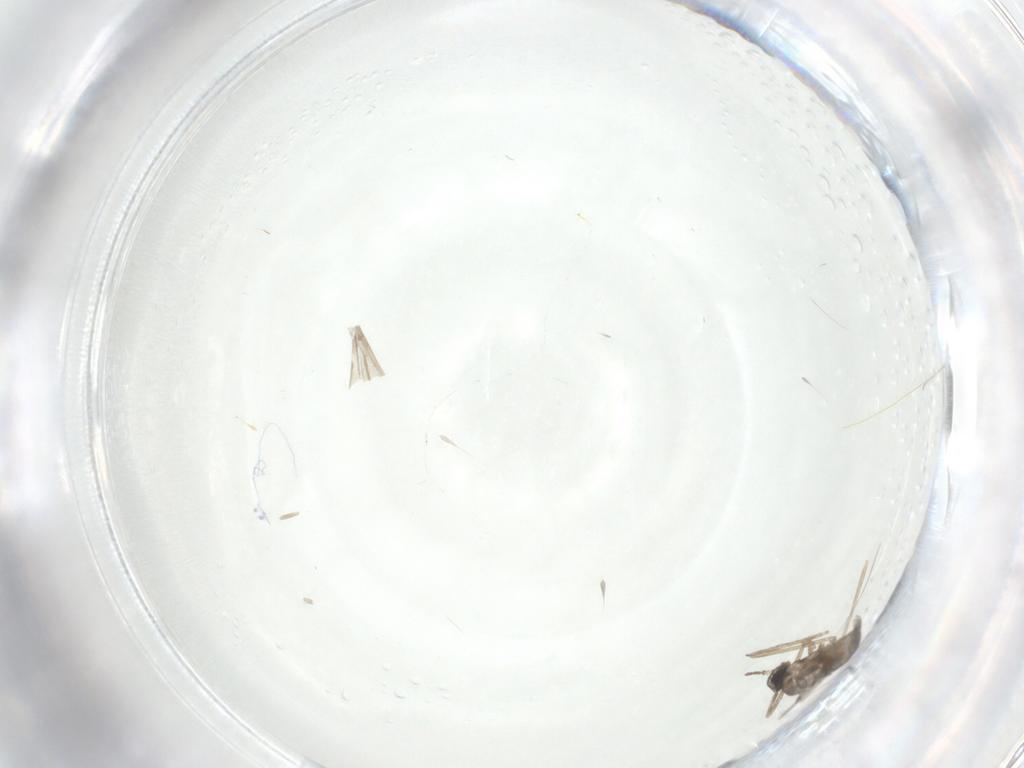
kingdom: Animalia
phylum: Arthropoda
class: Insecta
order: Diptera
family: Cecidomyiidae
